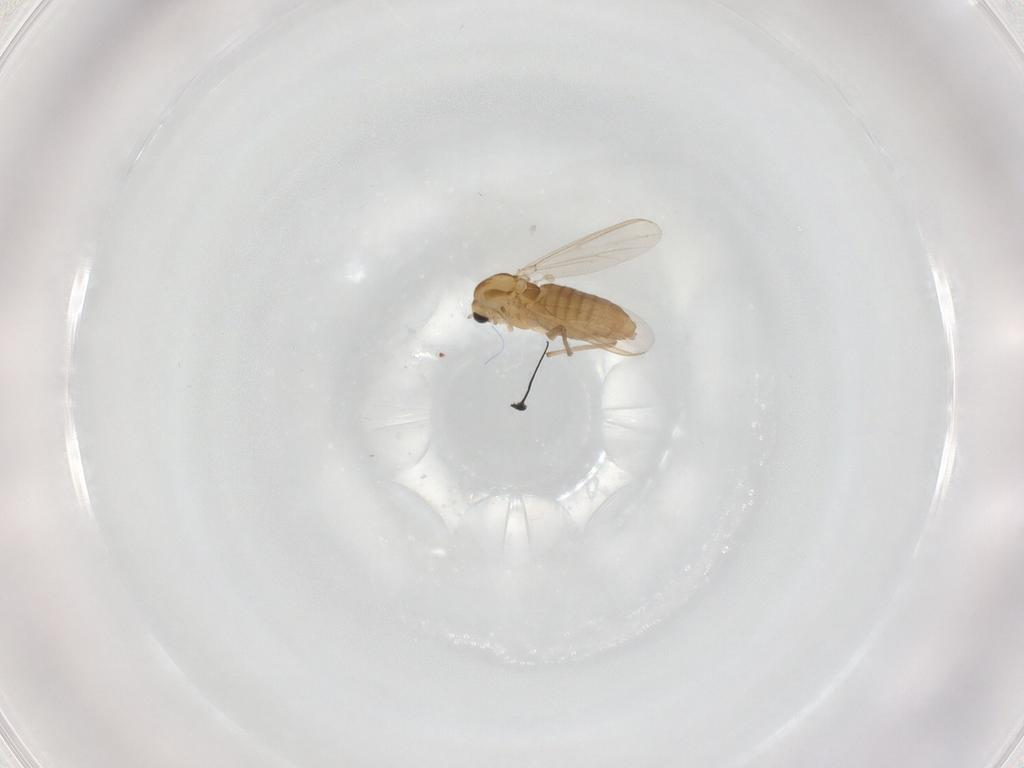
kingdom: Animalia
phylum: Arthropoda
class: Insecta
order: Diptera
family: Chironomidae
